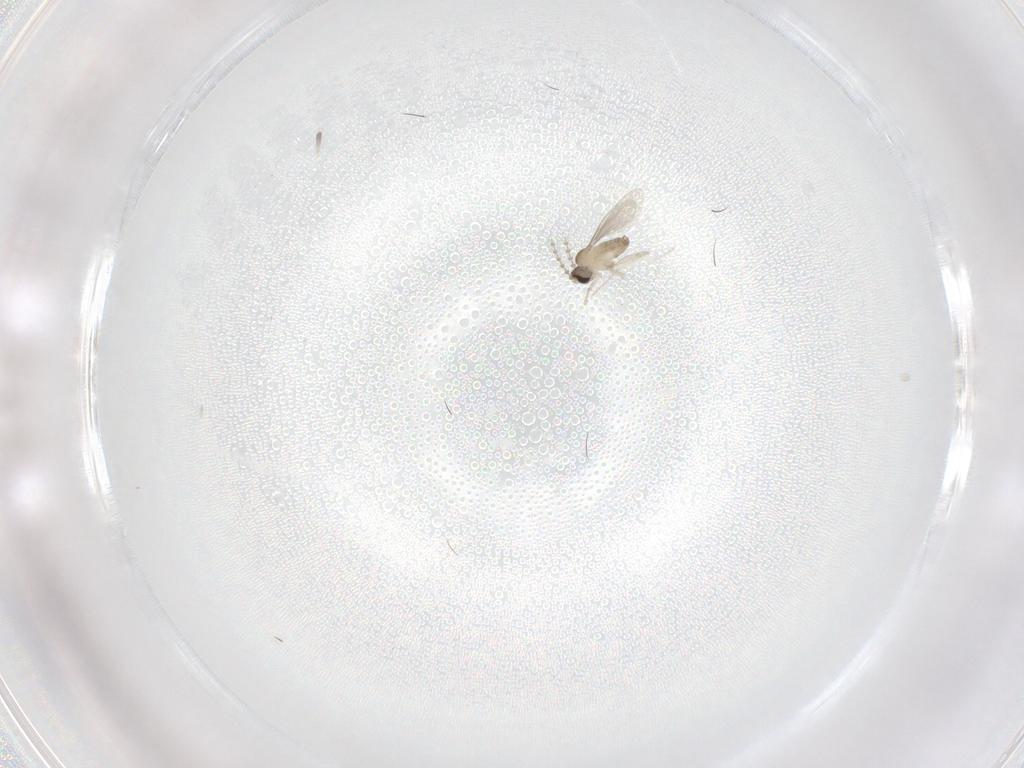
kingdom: Animalia
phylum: Arthropoda
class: Insecta
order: Diptera
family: Cecidomyiidae
